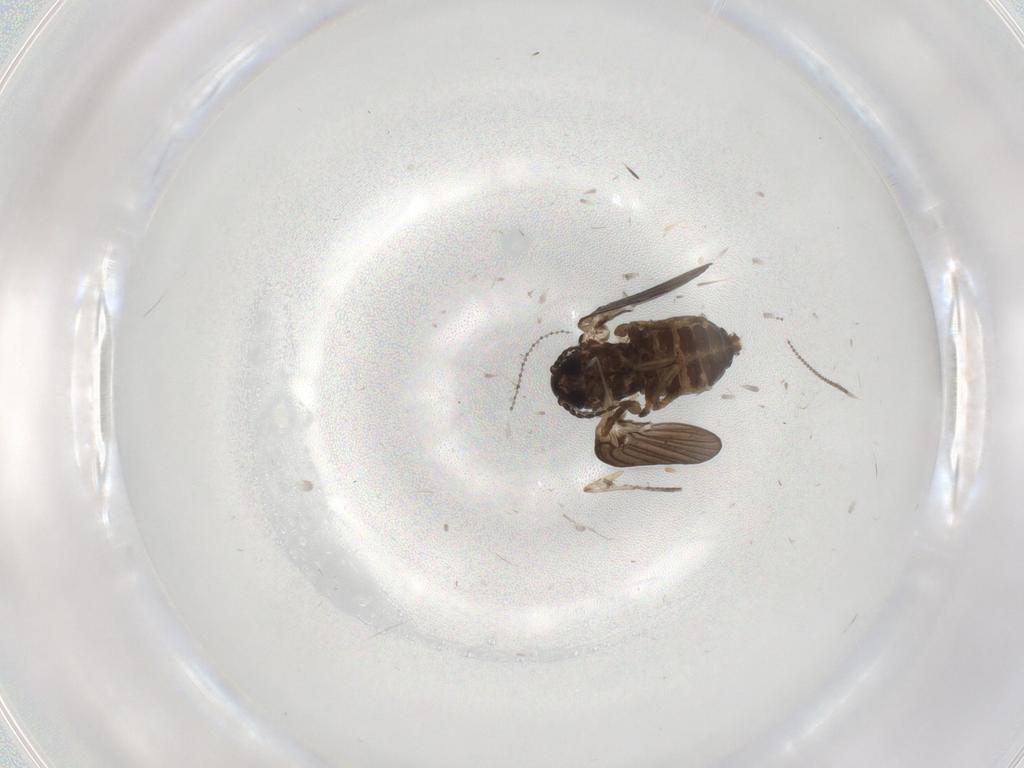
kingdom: Animalia
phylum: Arthropoda
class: Insecta
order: Diptera
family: Psychodidae
